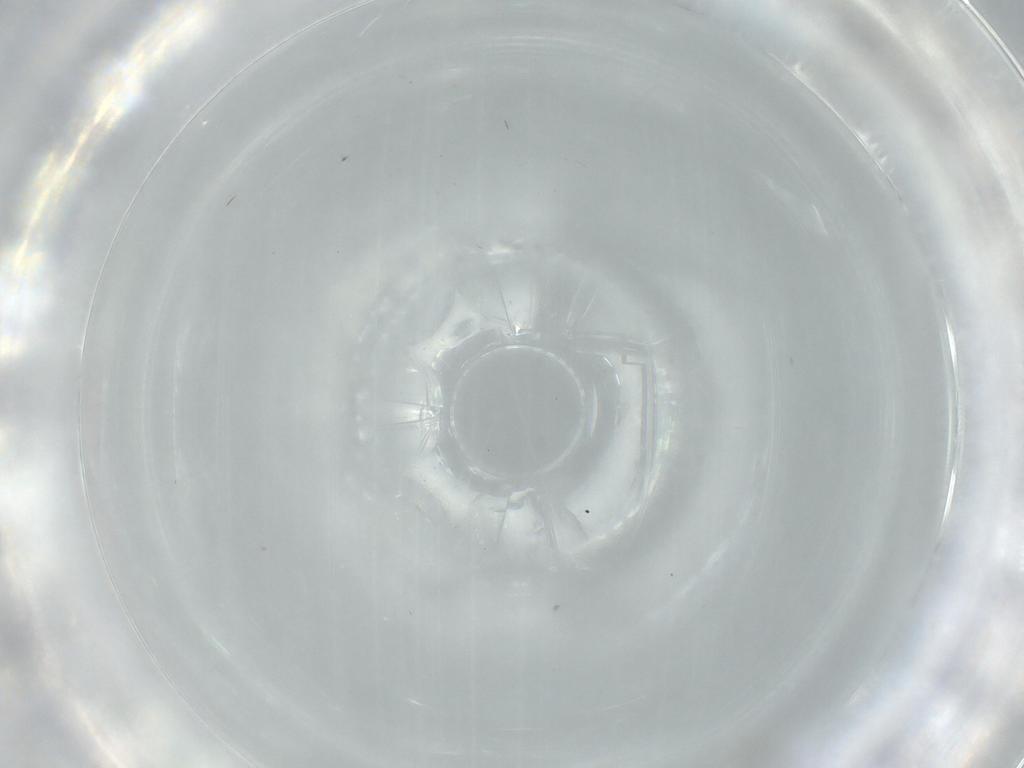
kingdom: Animalia
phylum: Arthropoda
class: Insecta
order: Diptera
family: Cecidomyiidae
